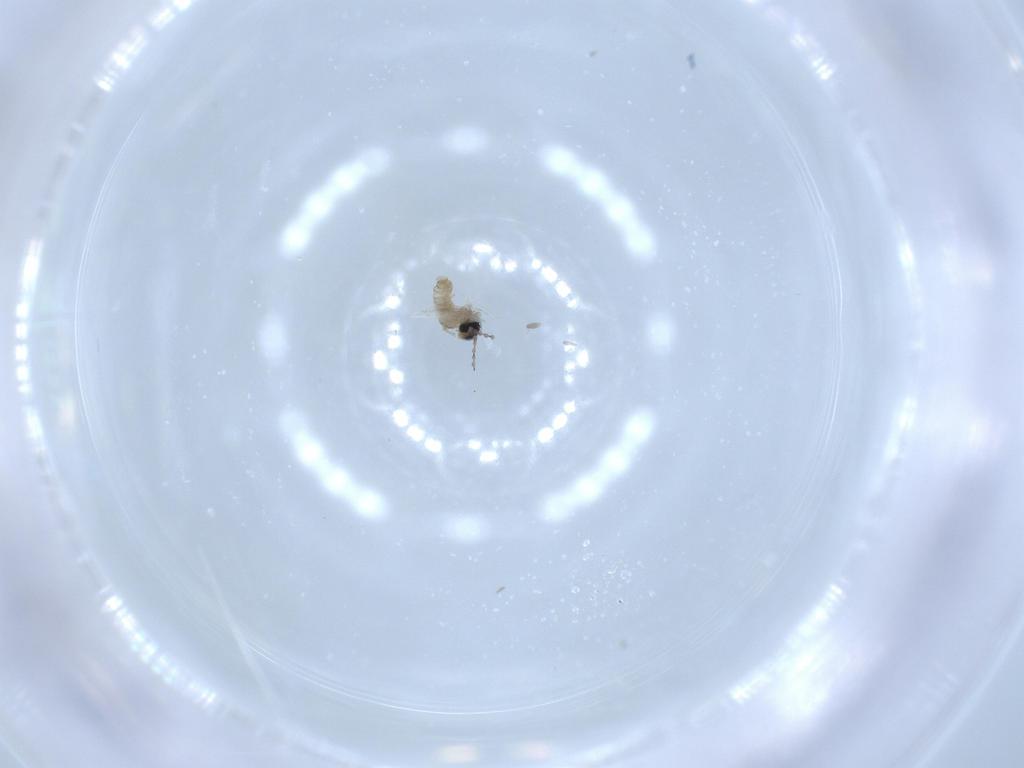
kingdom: Animalia
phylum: Arthropoda
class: Insecta
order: Diptera
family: Cecidomyiidae
